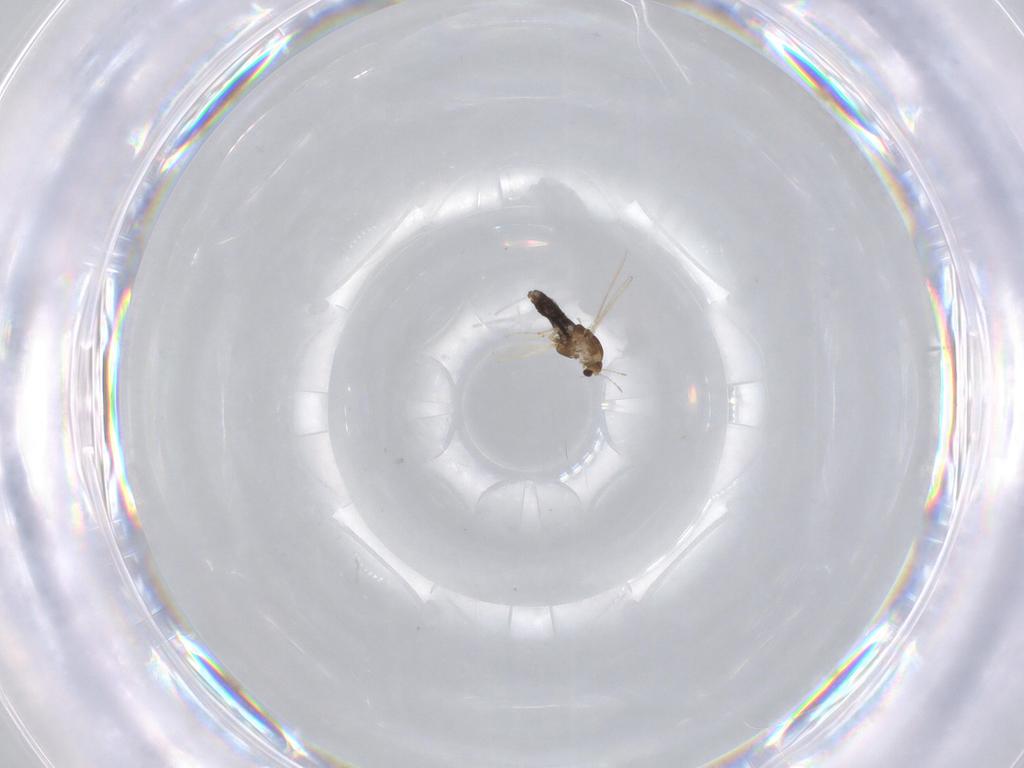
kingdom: Animalia
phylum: Arthropoda
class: Insecta
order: Diptera
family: Chironomidae
